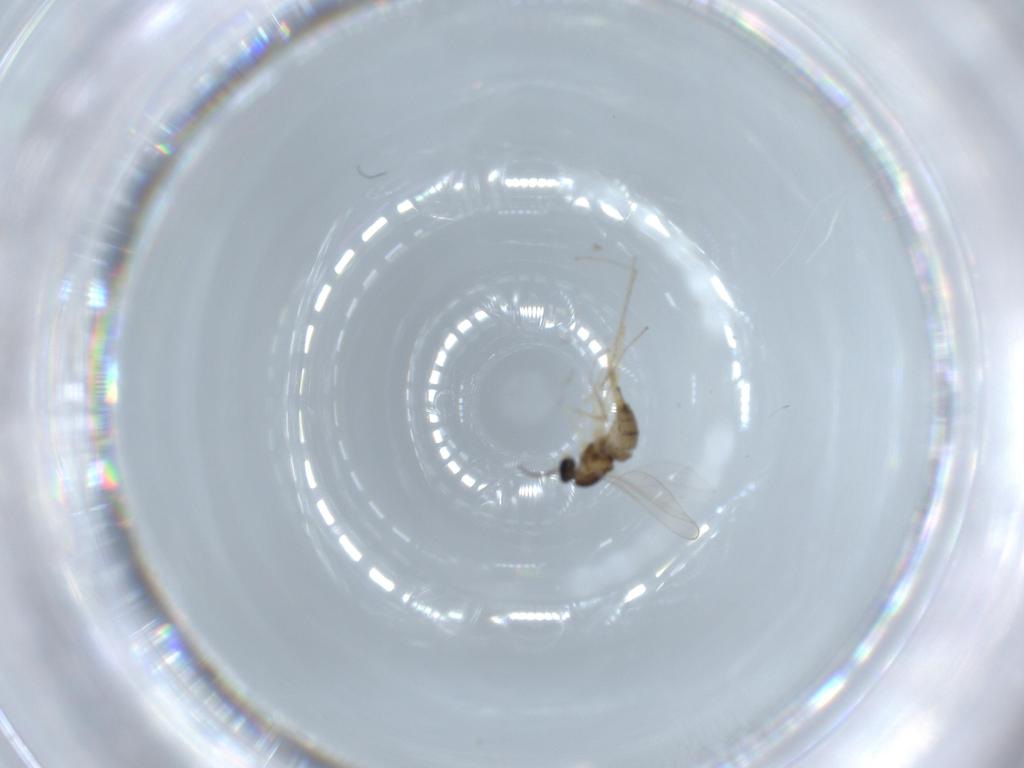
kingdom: Animalia
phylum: Arthropoda
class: Insecta
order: Diptera
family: Cecidomyiidae
